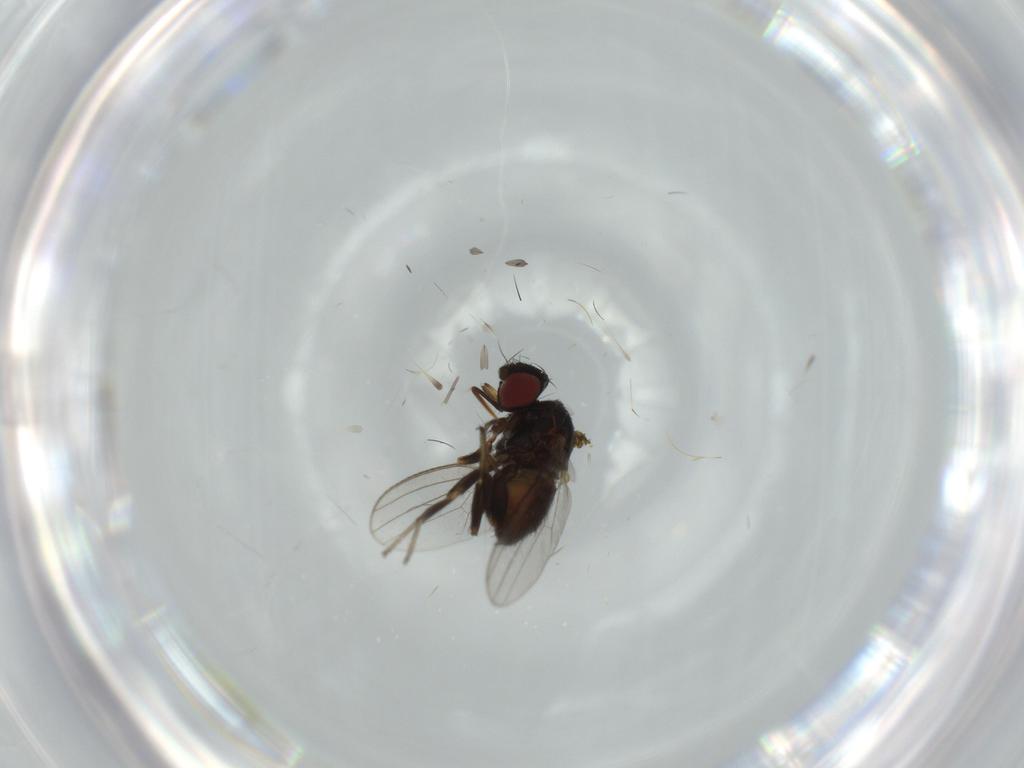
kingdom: Animalia
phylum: Arthropoda
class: Insecta
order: Diptera
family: Milichiidae
